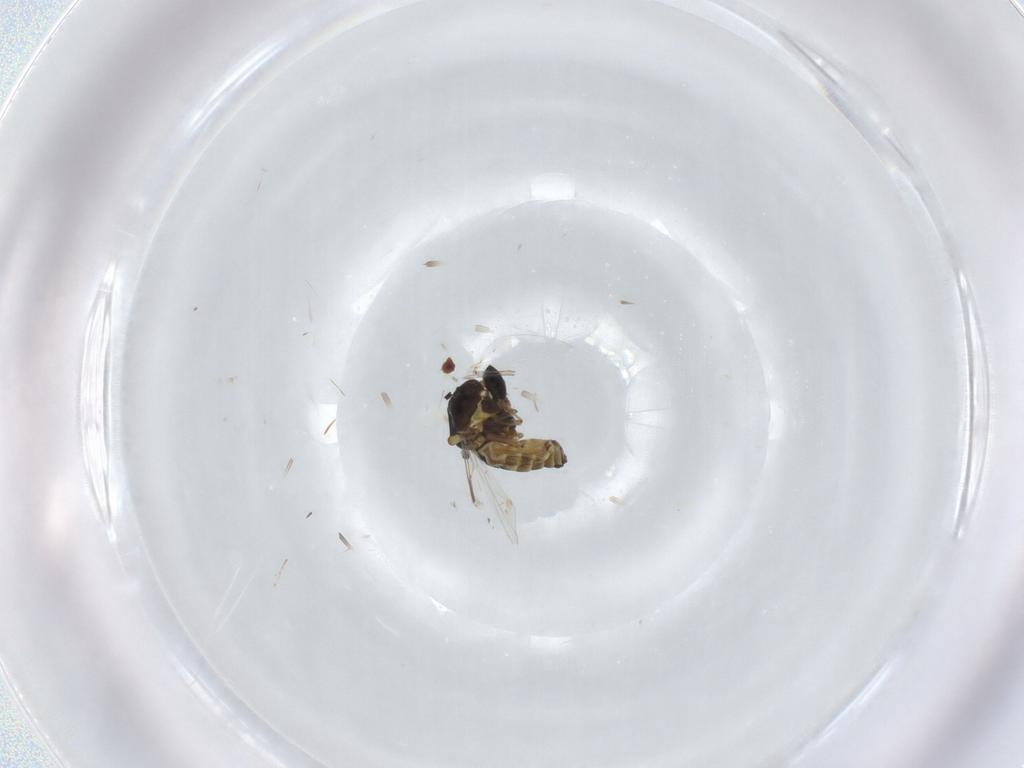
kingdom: Animalia
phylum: Arthropoda
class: Insecta
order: Diptera
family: Ceratopogonidae
